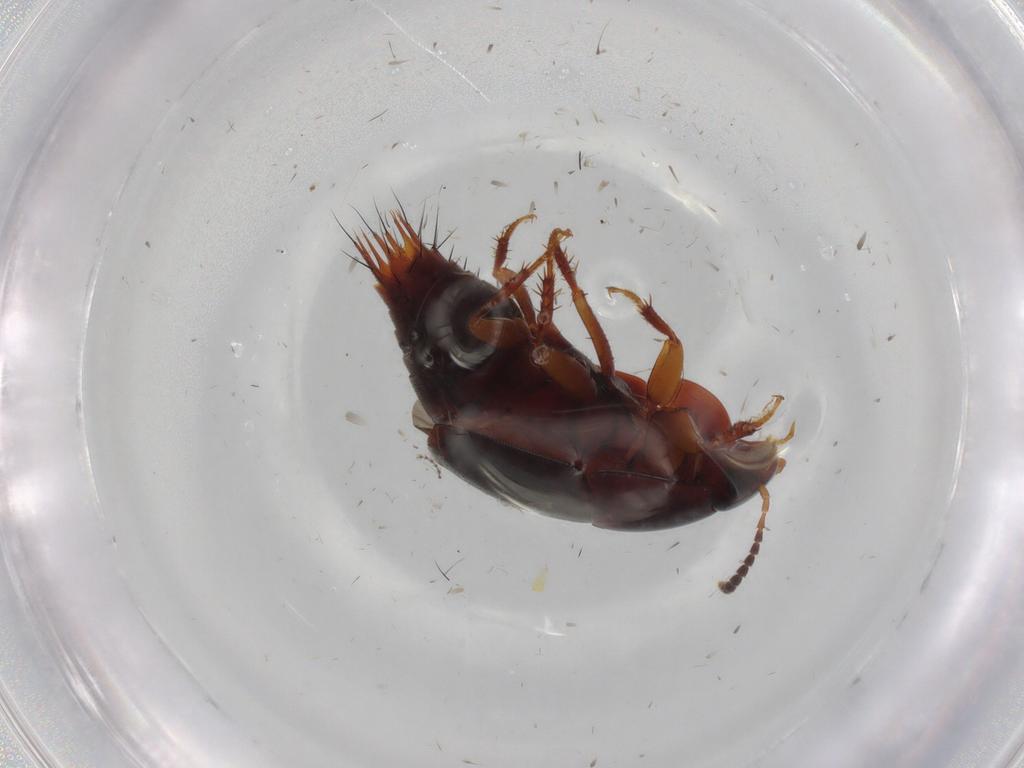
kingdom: Animalia
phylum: Arthropoda
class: Insecta
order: Coleoptera
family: Staphylinidae
